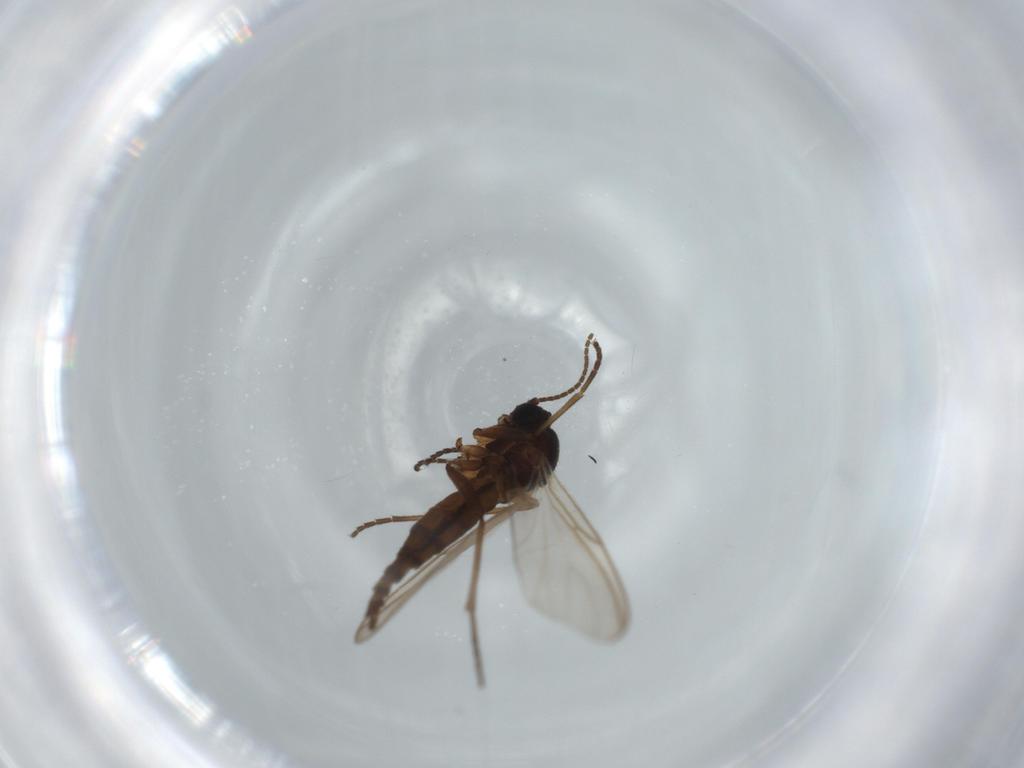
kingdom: Animalia
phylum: Arthropoda
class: Insecta
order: Diptera
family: Sciaridae
